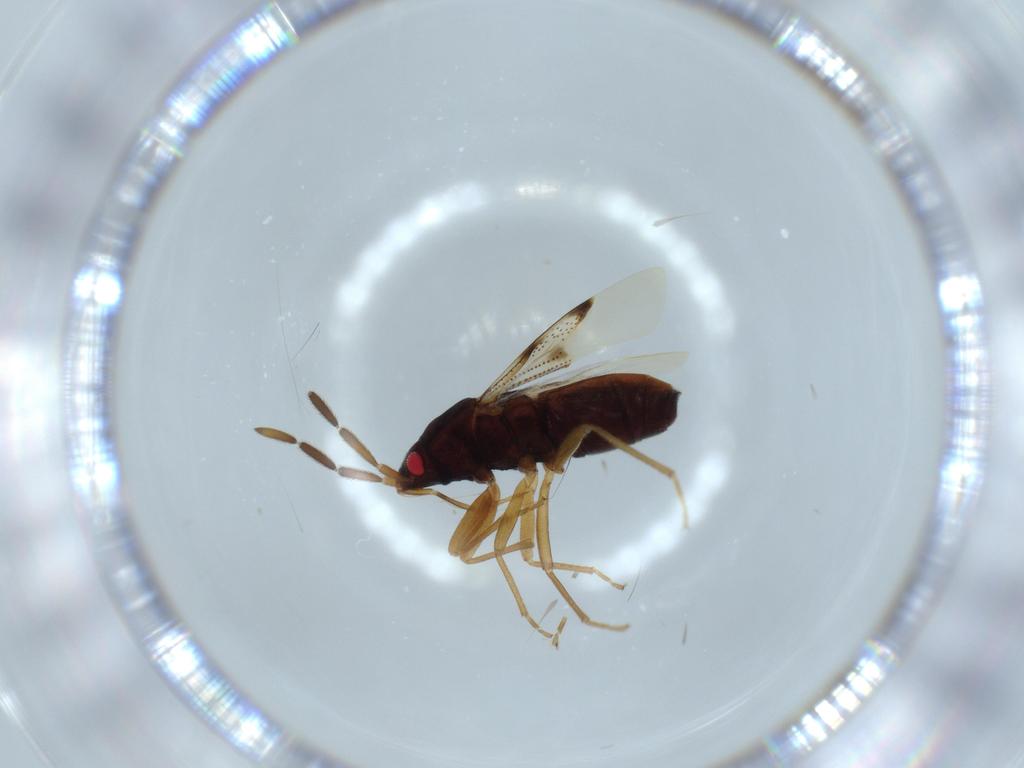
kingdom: Animalia
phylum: Arthropoda
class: Insecta
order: Hemiptera
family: Rhyparochromidae
